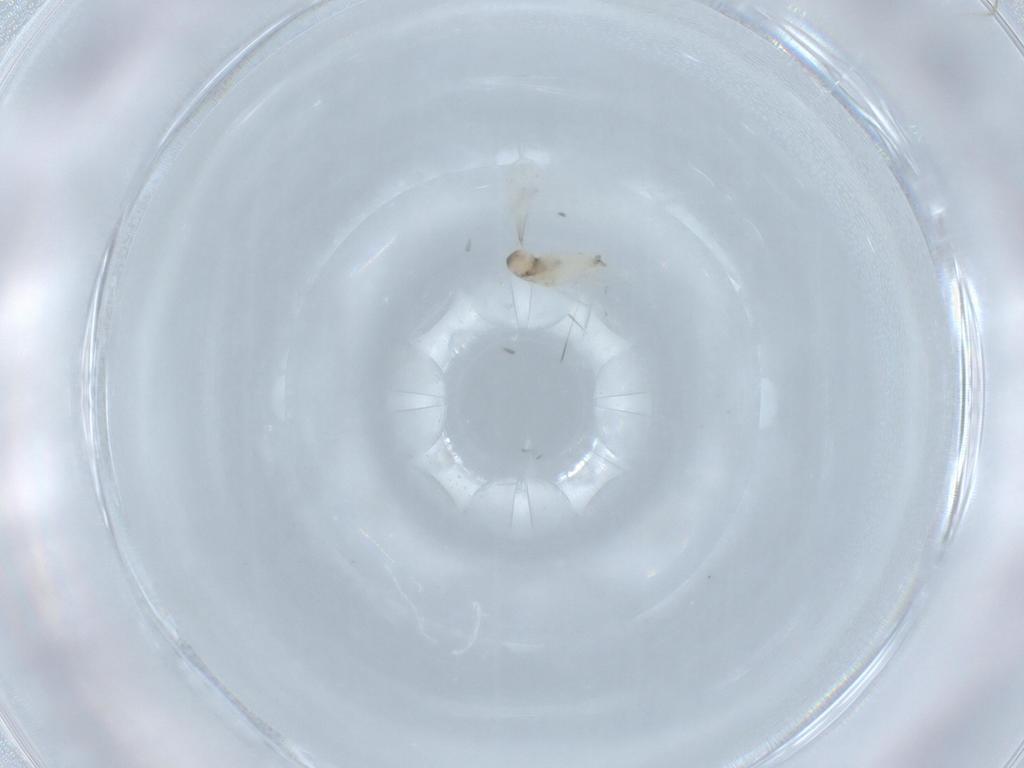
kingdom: Animalia
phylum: Arthropoda
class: Insecta
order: Diptera
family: Cecidomyiidae
